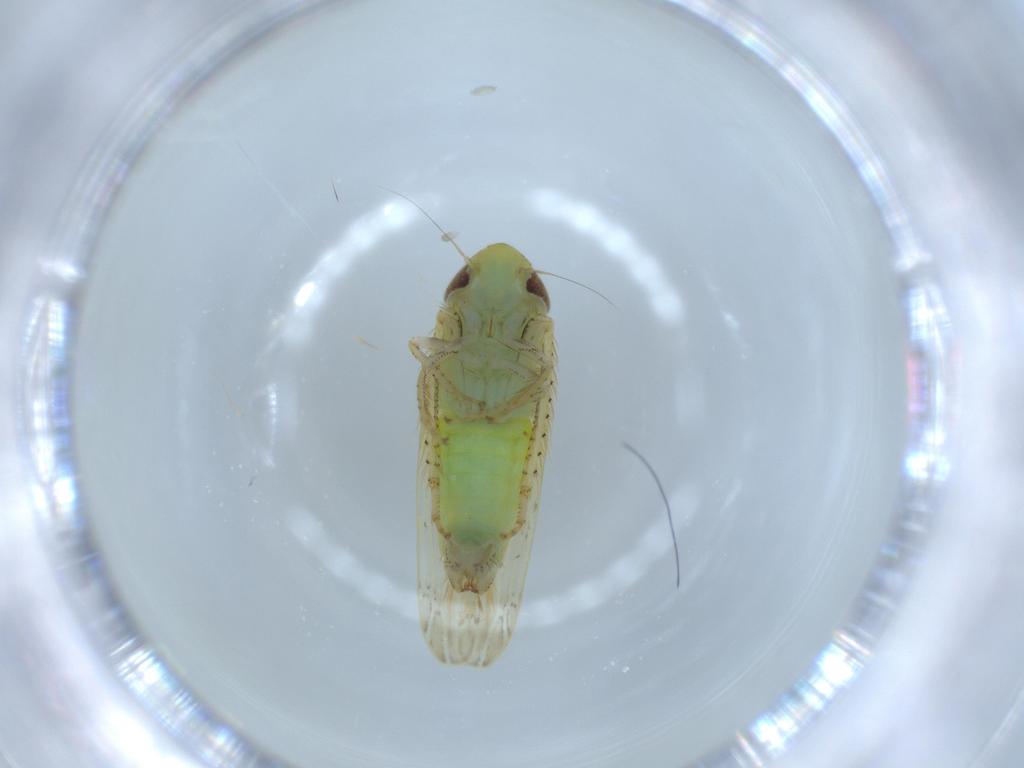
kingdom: Animalia
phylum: Arthropoda
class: Insecta
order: Hemiptera
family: Cicadellidae
